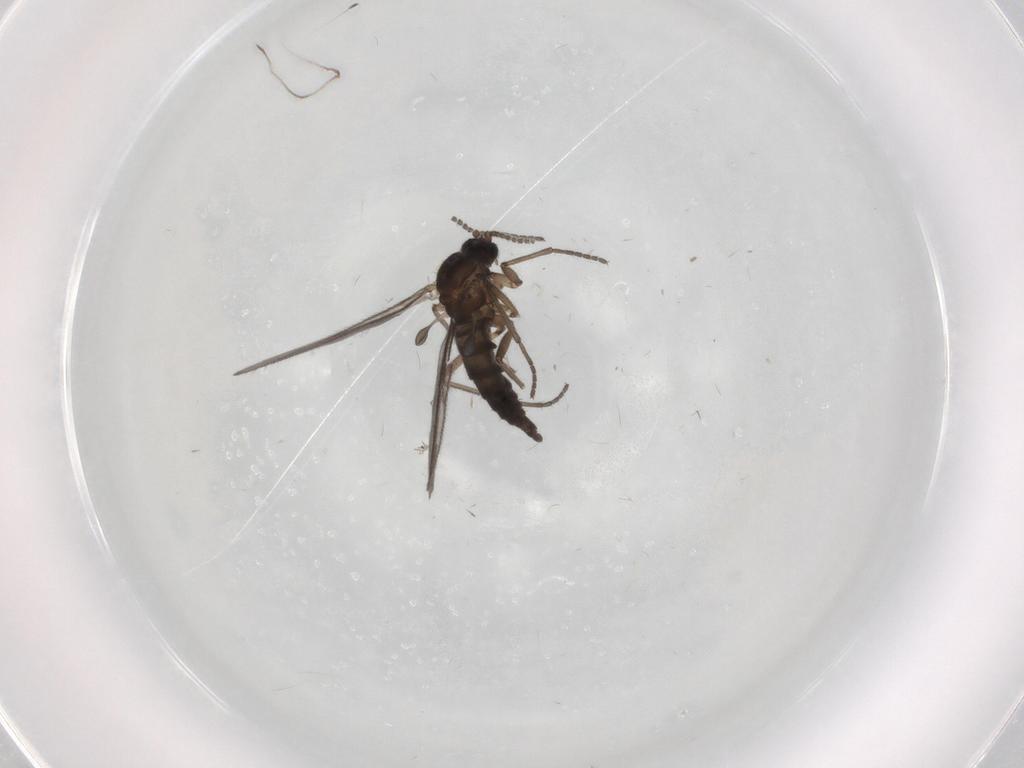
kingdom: Animalia
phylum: Arthropoda
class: Insecta
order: Diptera
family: Sciaridae
